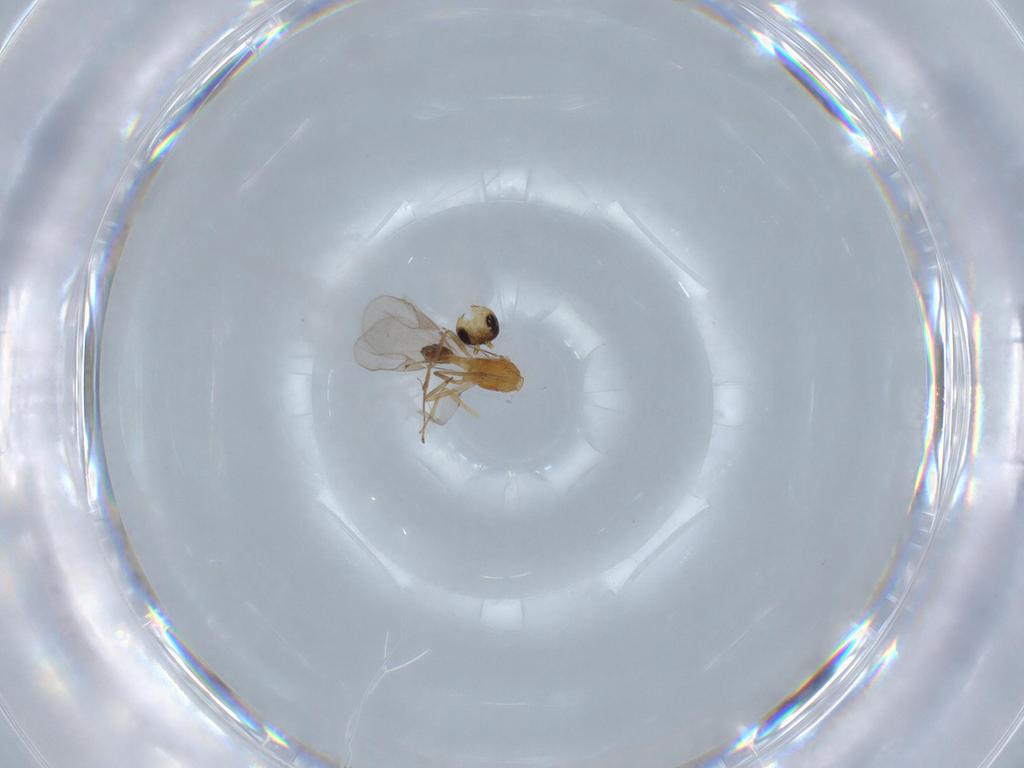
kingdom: Animalia
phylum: Arthropoda
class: Insecta
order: Hymenoptera
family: Braconidae
